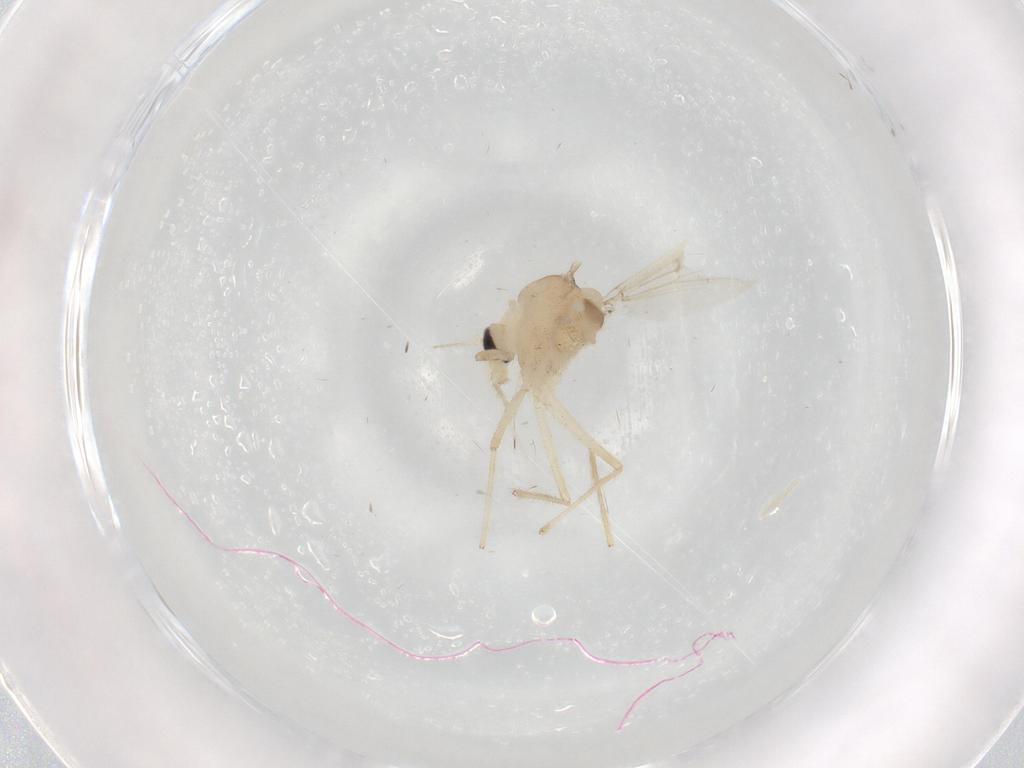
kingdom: Animalia
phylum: Arthropoda
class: Insecta
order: Diptera
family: Chironomidae
